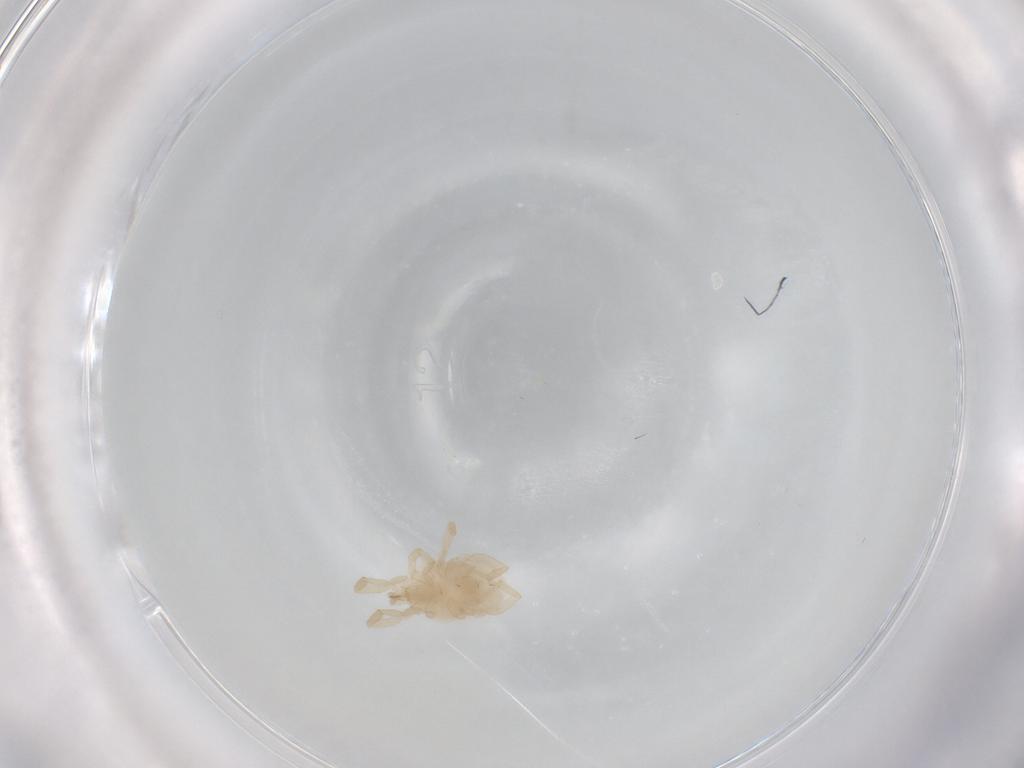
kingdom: Animalia
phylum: Arthropoda
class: Arachnida
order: Trombidiformes
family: Erythraeidae
